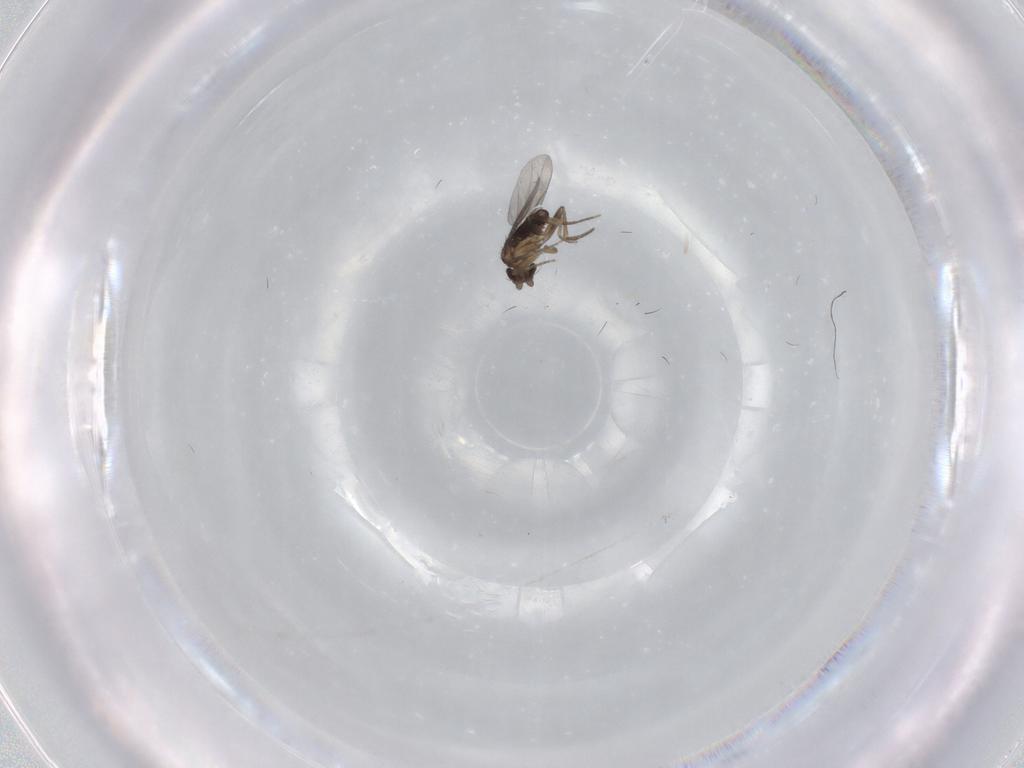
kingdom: Animalia
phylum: Arthropoda
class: Insecta
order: Diptera
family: Phoridae
